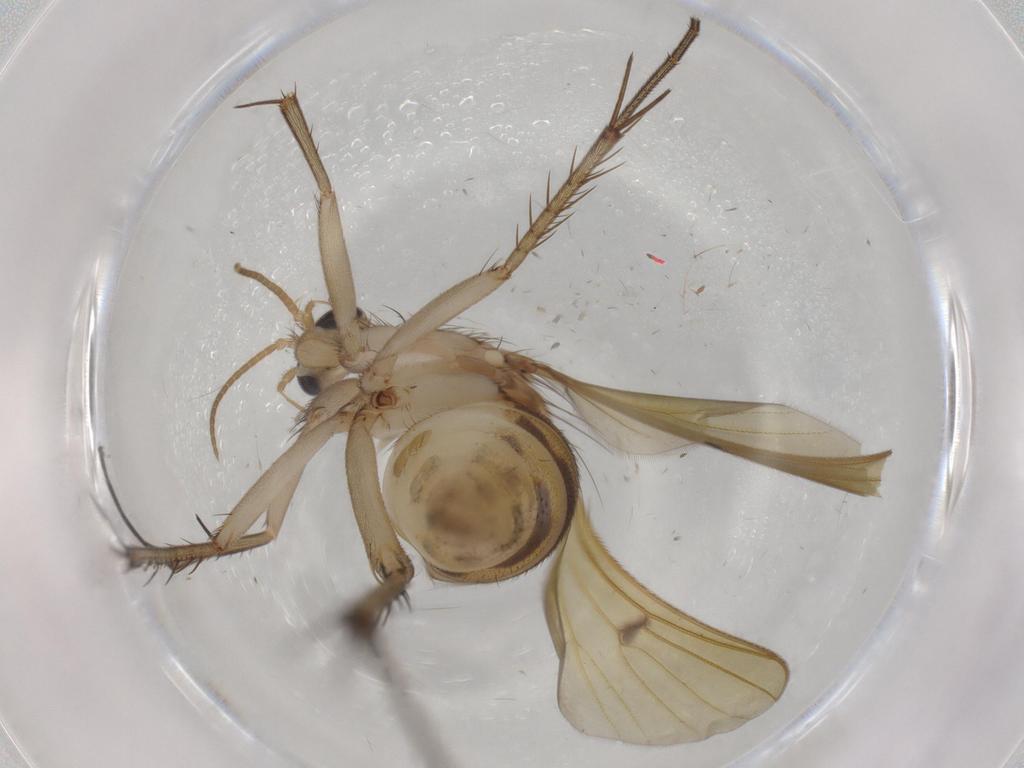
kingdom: Animalia
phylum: Arthropoda
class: Insecta
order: Diptera
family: Mycetophilidae
